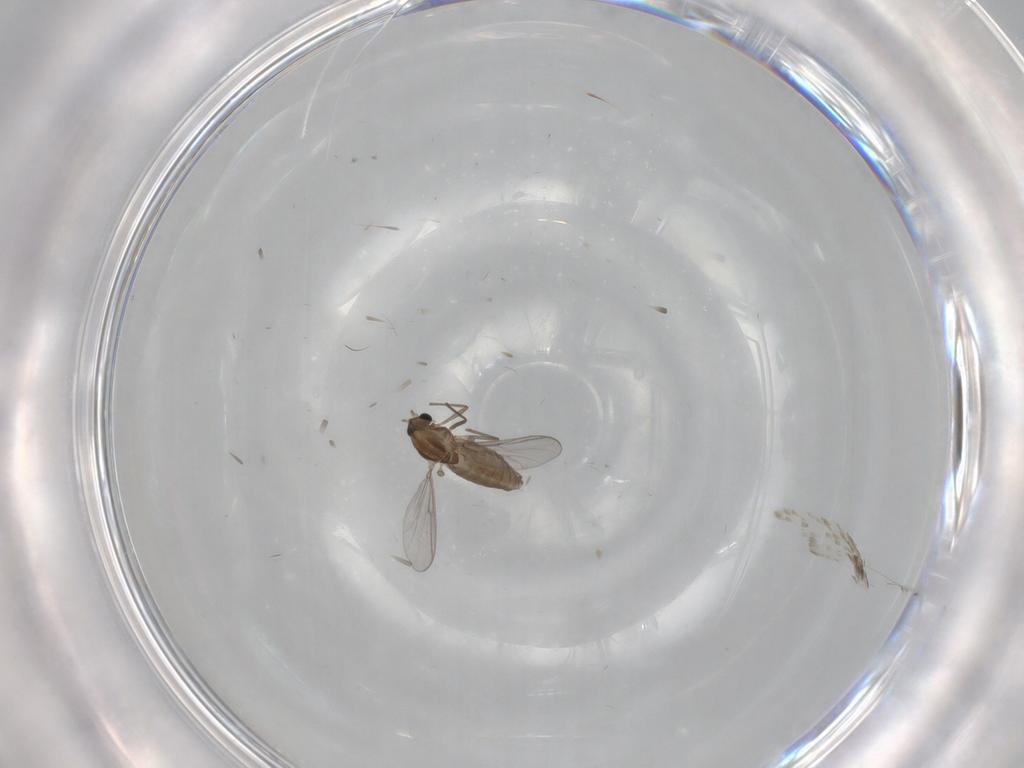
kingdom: Animalia
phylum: Arthropoda
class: Insecta
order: Diptera
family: Chironomidae
